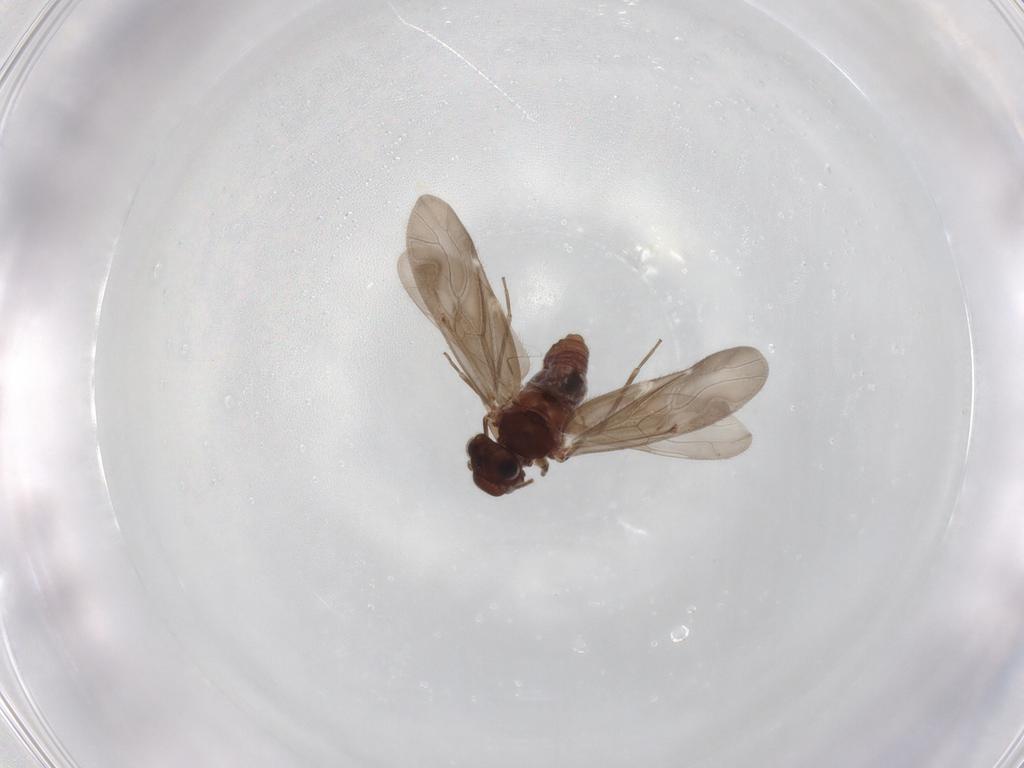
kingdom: Animalia
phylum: Arthropoda
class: Insecta
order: Psocodea
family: Caeciliusidae
